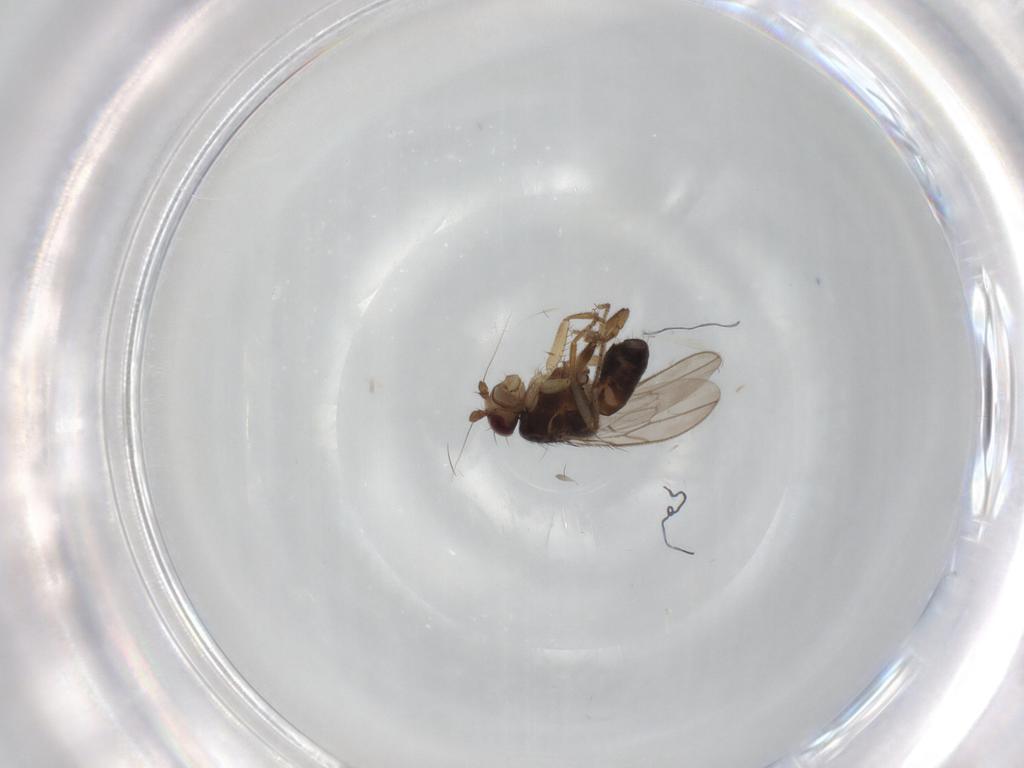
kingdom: Animalia
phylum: Arthropoda
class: Insecta
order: Diptera
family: Sphaeroceridae
